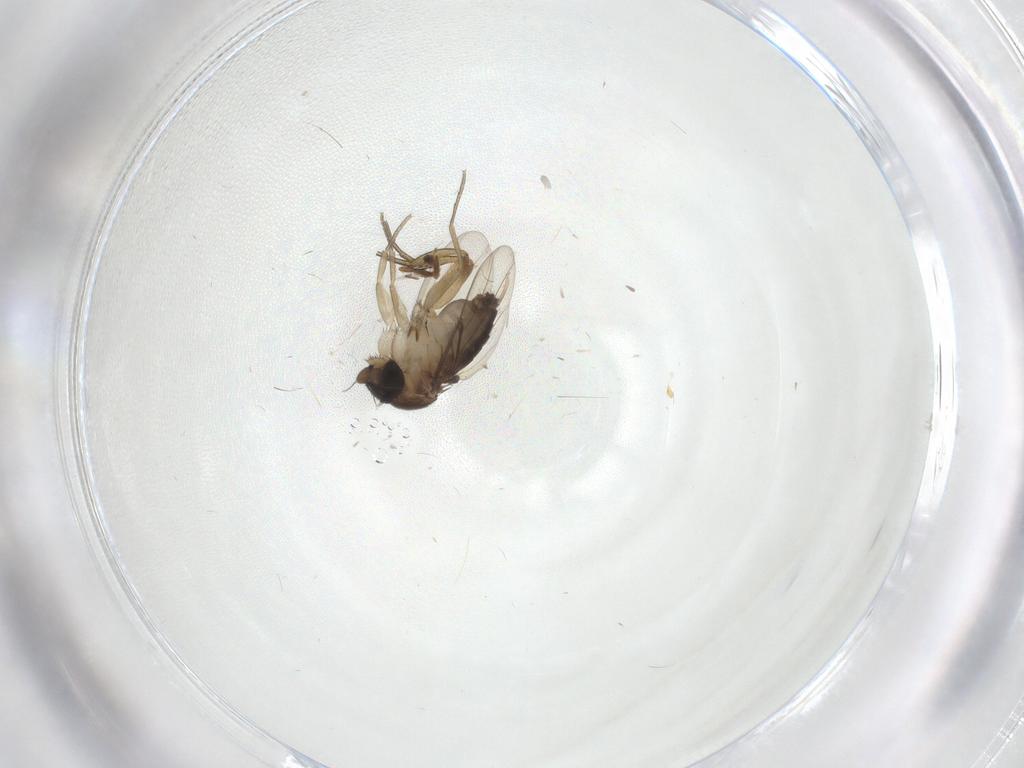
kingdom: Animalia
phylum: Arthropoda
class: Insecta
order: Diptera
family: Phoridae
